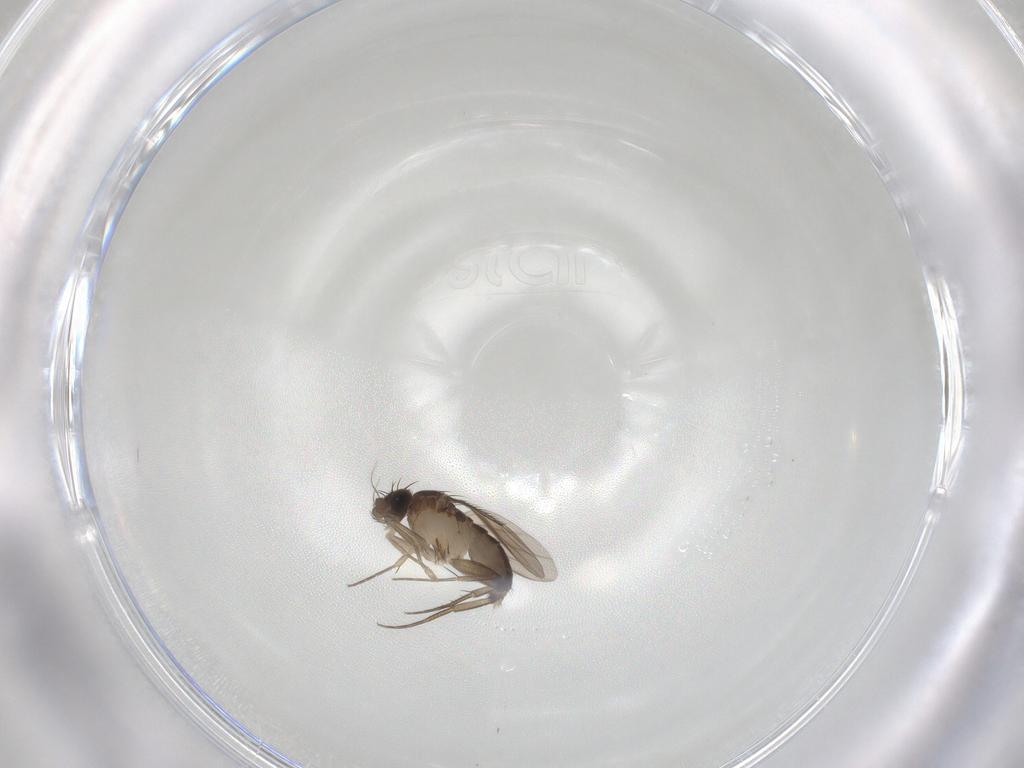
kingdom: Animalia
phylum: Arthropoda
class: Insecta
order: Diptera
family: Phoridae
